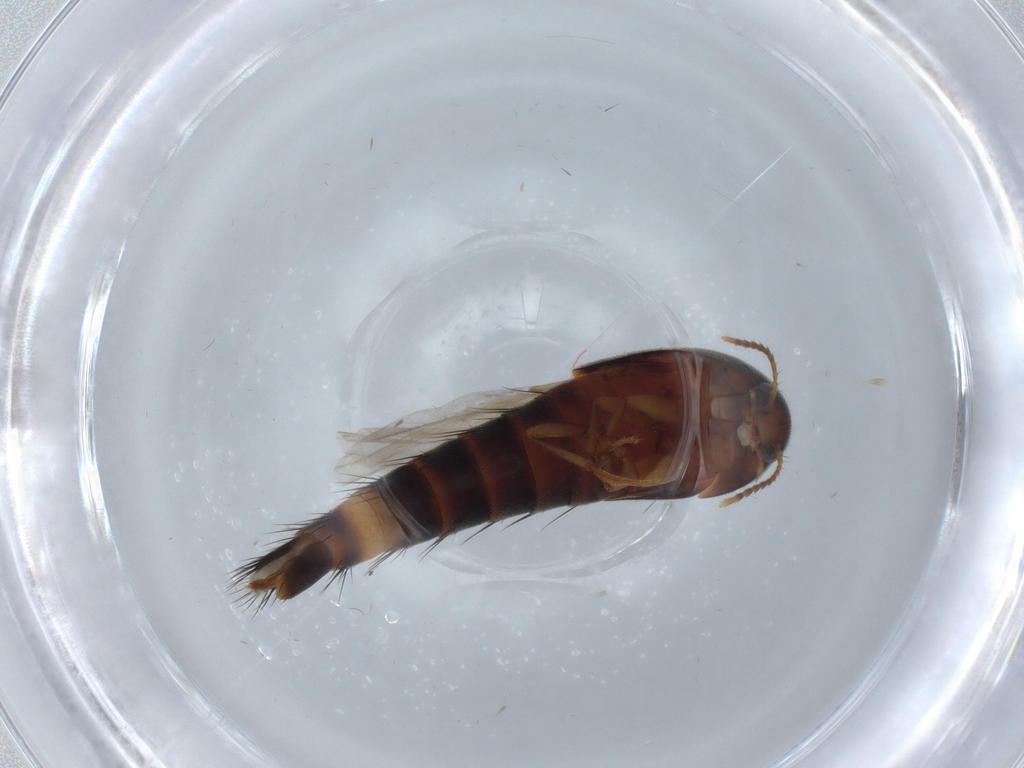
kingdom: Animalia
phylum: Arthropoda
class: Insecta
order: Coleoptera
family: Staphylinidae
